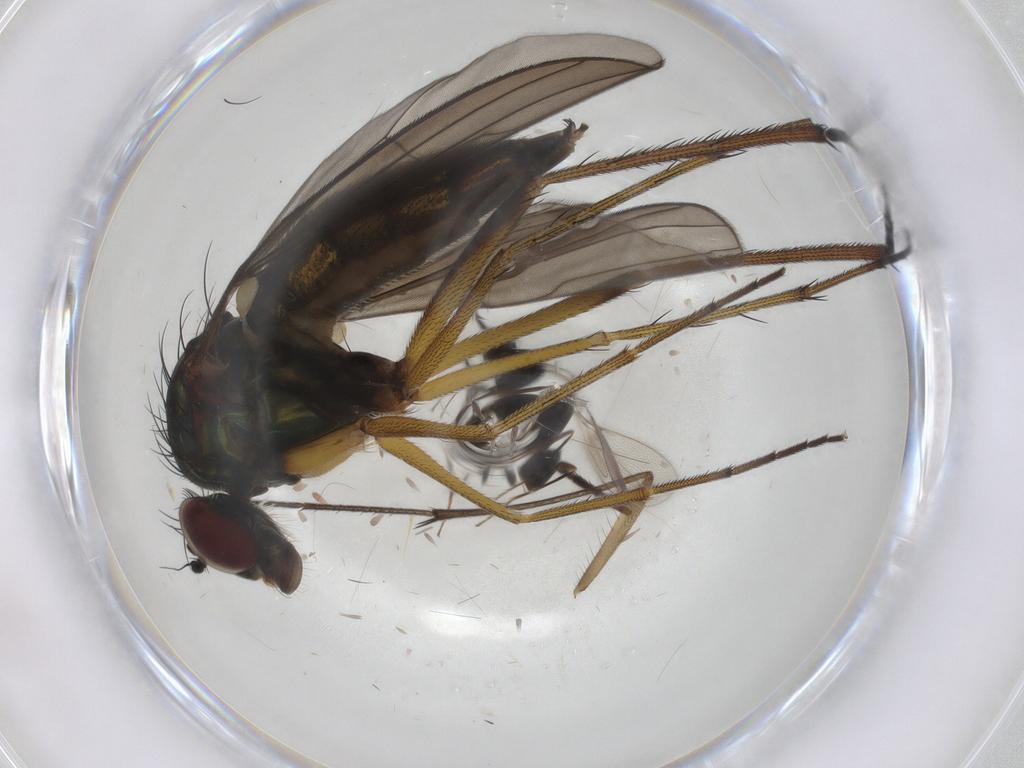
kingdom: Animalia
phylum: Arthropoda
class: Insecta
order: Diptera
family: Dolichopodidae
